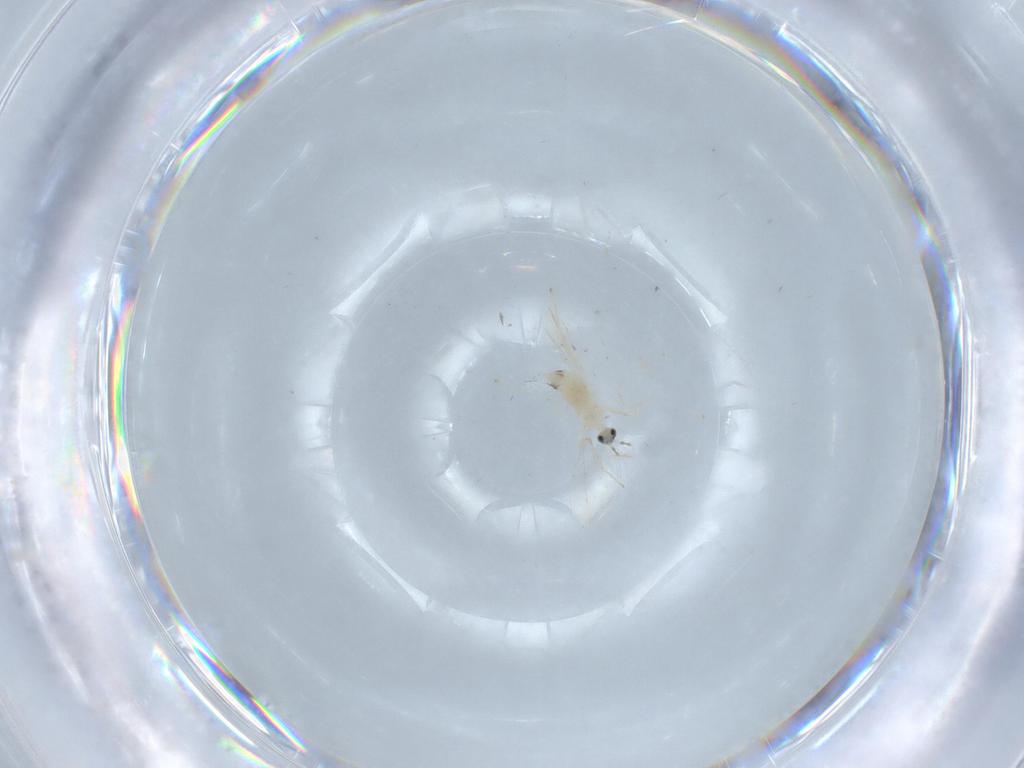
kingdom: Animalia
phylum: Arthropoda
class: Insecta
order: Diptera
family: Cecidomyiidae
